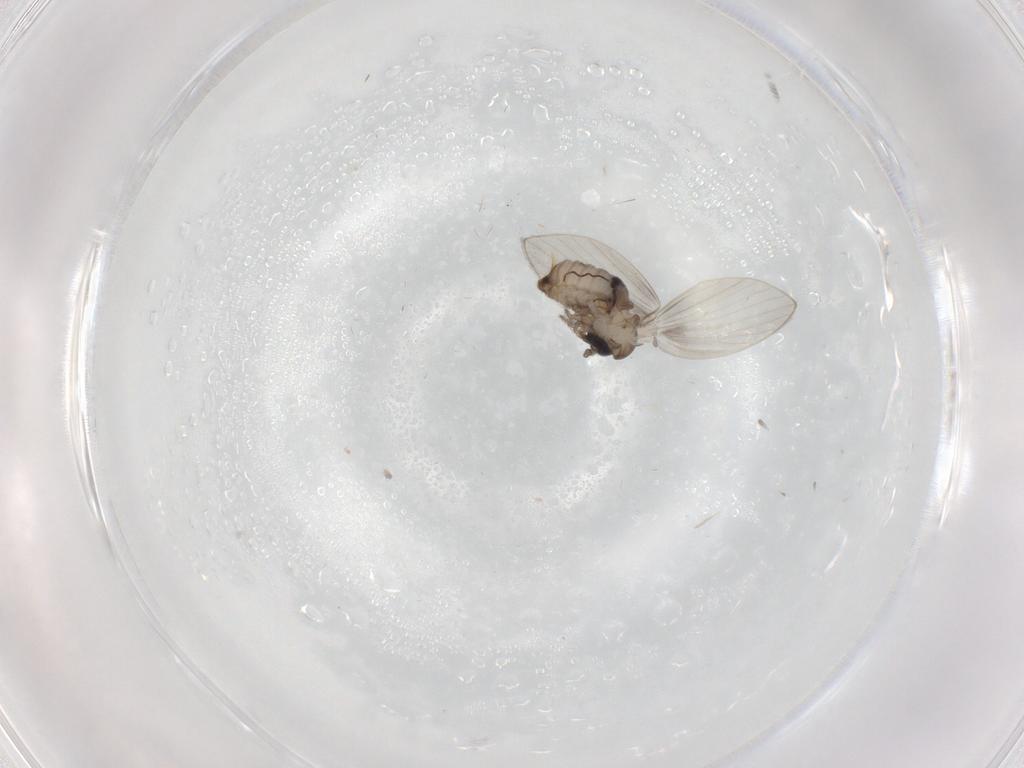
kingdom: Animalia
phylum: Arthropoda
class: Insecta
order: Diptera
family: Psychodidae
